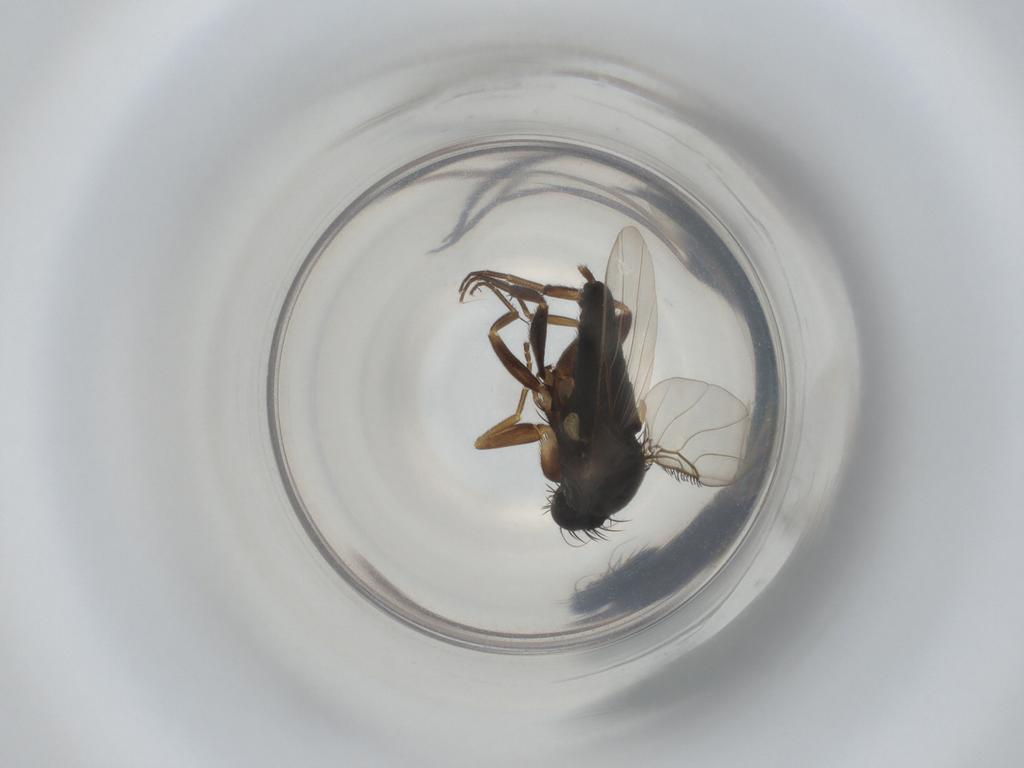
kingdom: Animalia
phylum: Arthropoda
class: Insecta
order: Diptera
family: Phoridae
